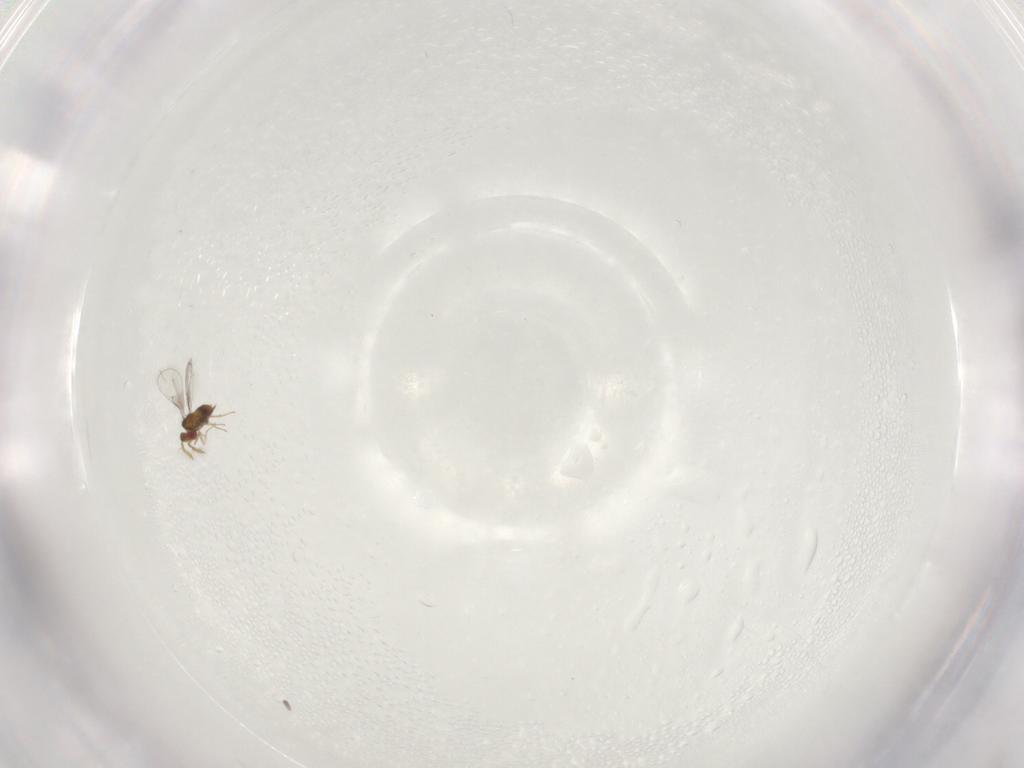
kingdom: Animalia
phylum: Arthropoda
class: Insecta
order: Hymenoptera
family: Trichogrammatidae
